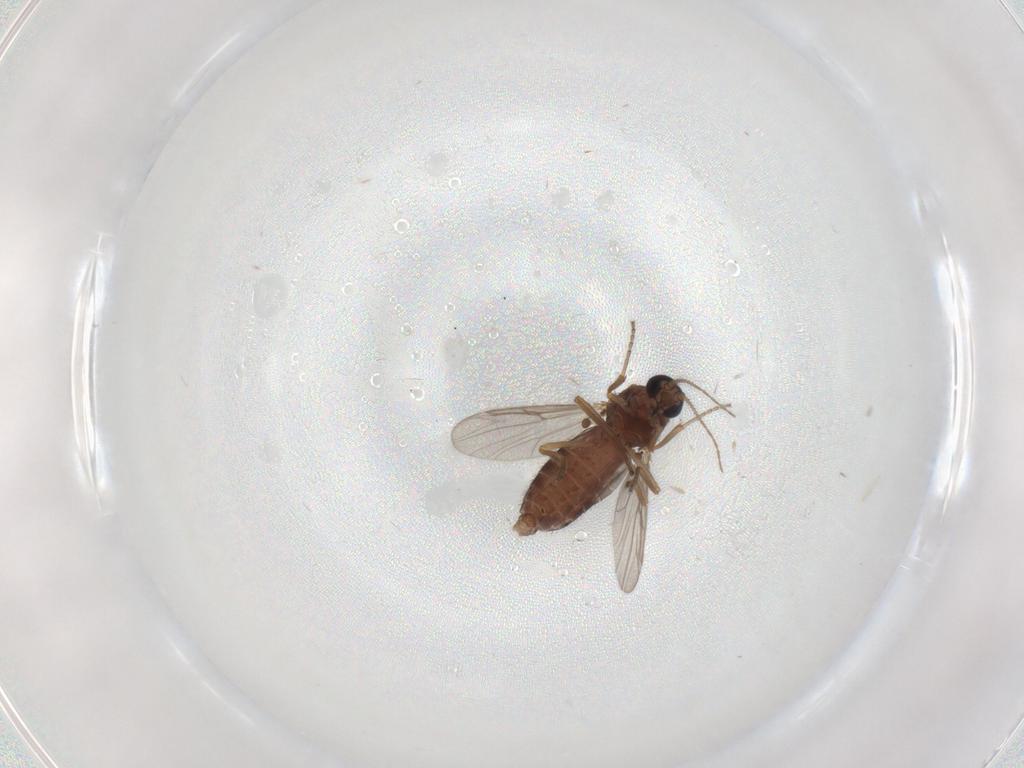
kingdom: Animalia
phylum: Arthropoda
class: Insecta
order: Diptera
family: Ceratopogonidae
